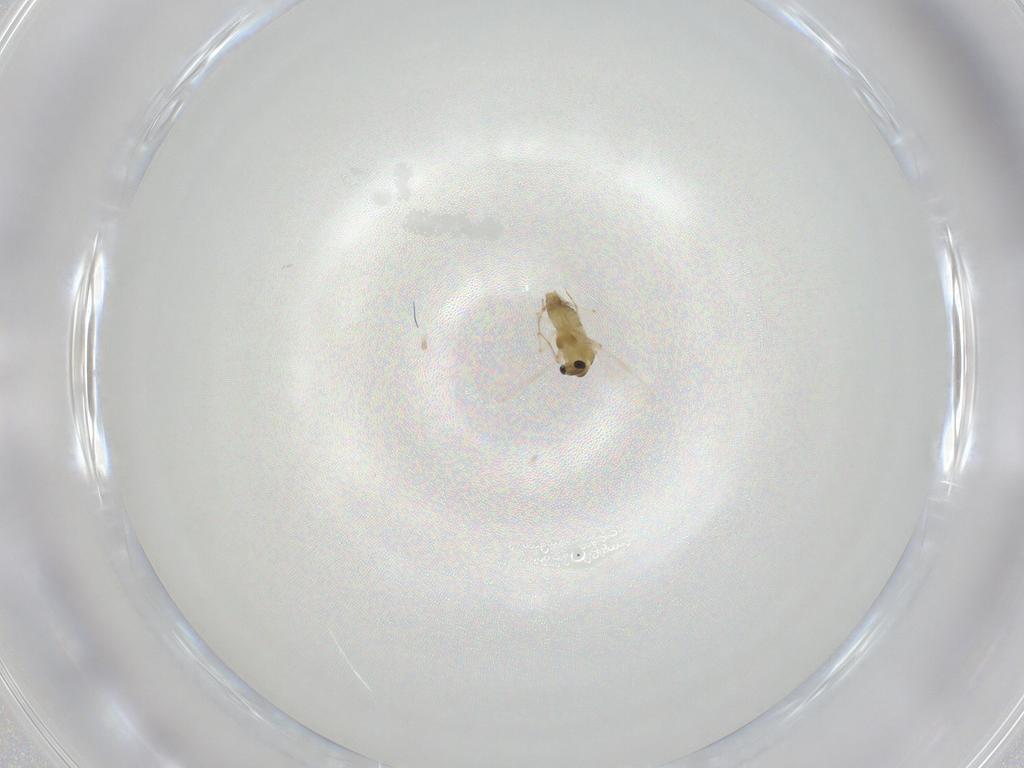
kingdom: Animalia
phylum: Arthropoda
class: Insecta
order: Diptera
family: Chironomidae
